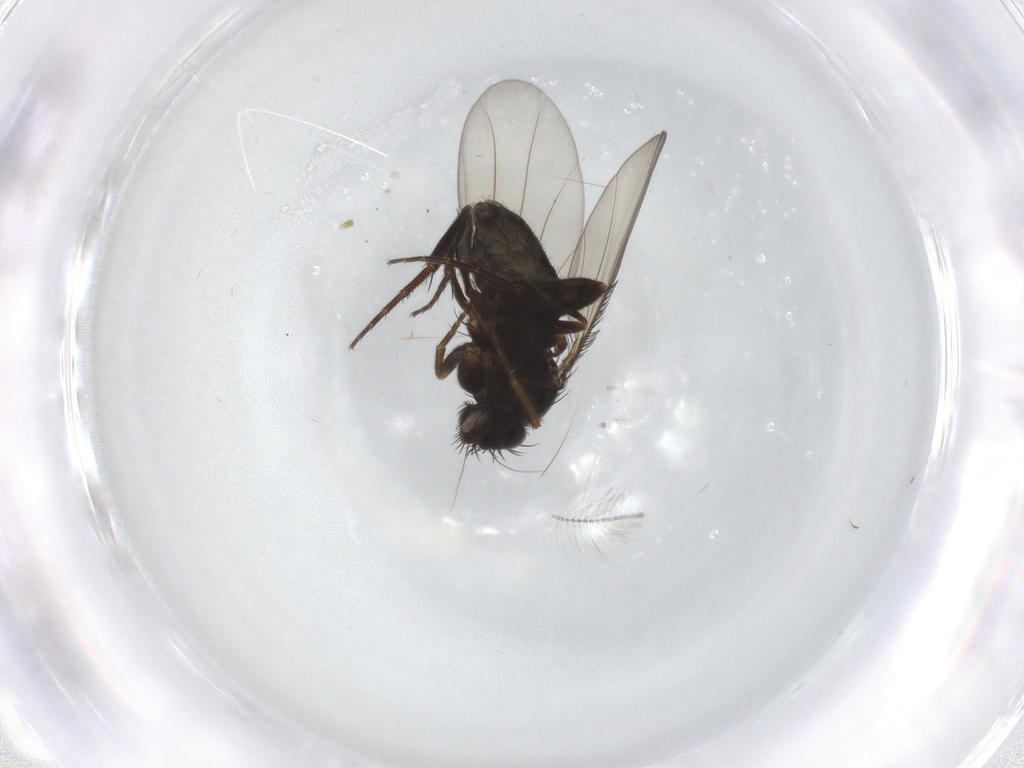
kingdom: Animalia
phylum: Arthropoda
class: Insecta
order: Diptera
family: Phoridae
